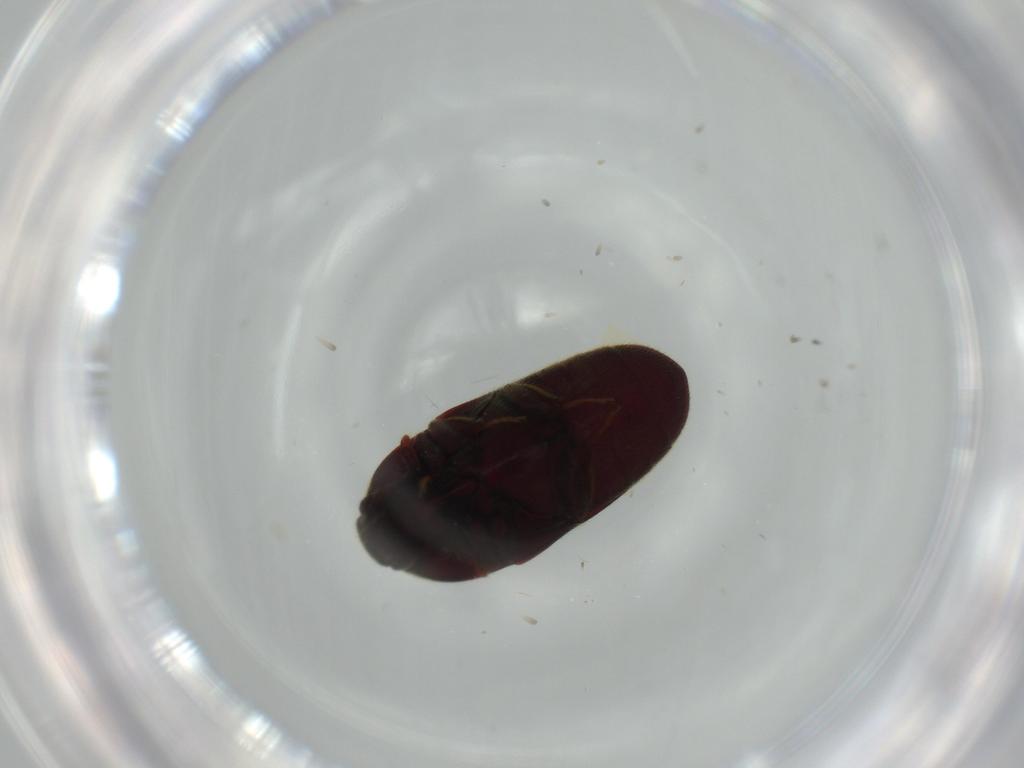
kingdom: Animalia
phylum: Arthropoda
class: Insecta
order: Coleoptera
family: Throscidae
